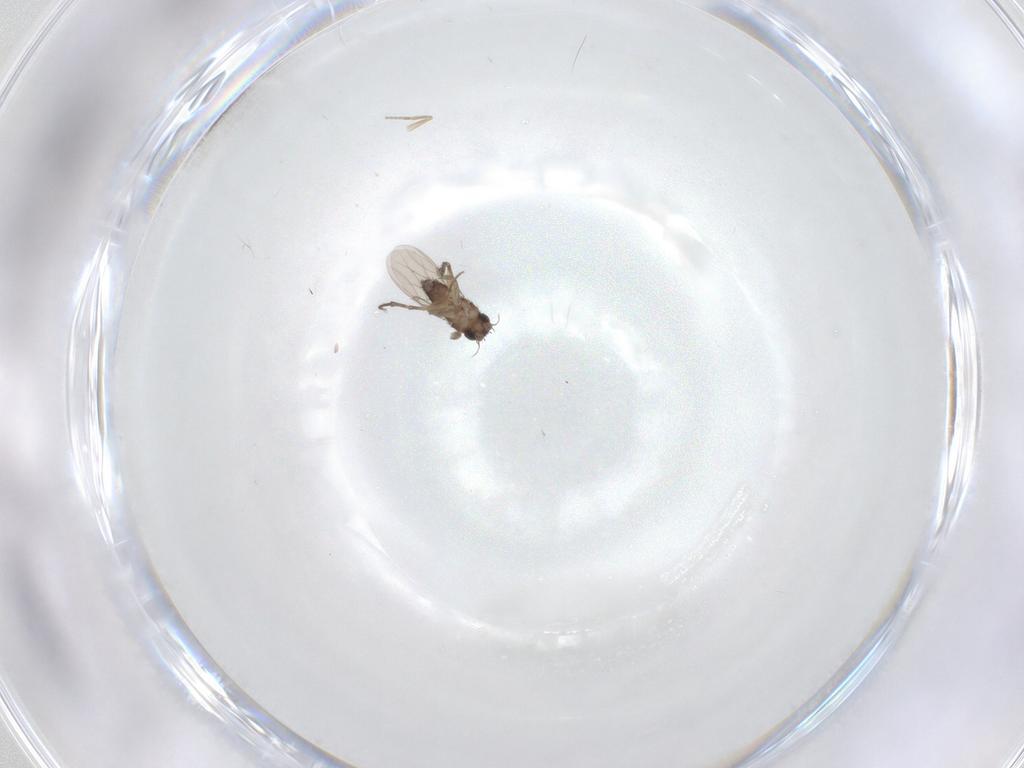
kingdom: Animalia
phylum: Arthropoda
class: Insecta
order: Diptera
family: Phoridae
